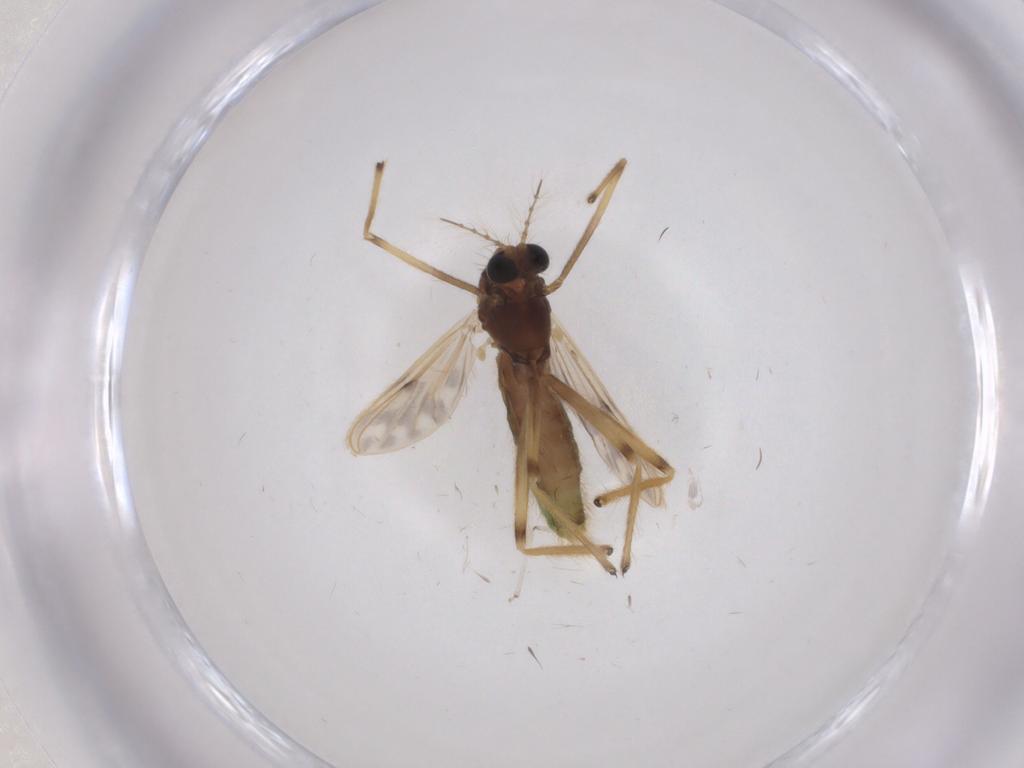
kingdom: Animalia
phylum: Arthropoda
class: Insecta
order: Diptera
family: Chironomidae
